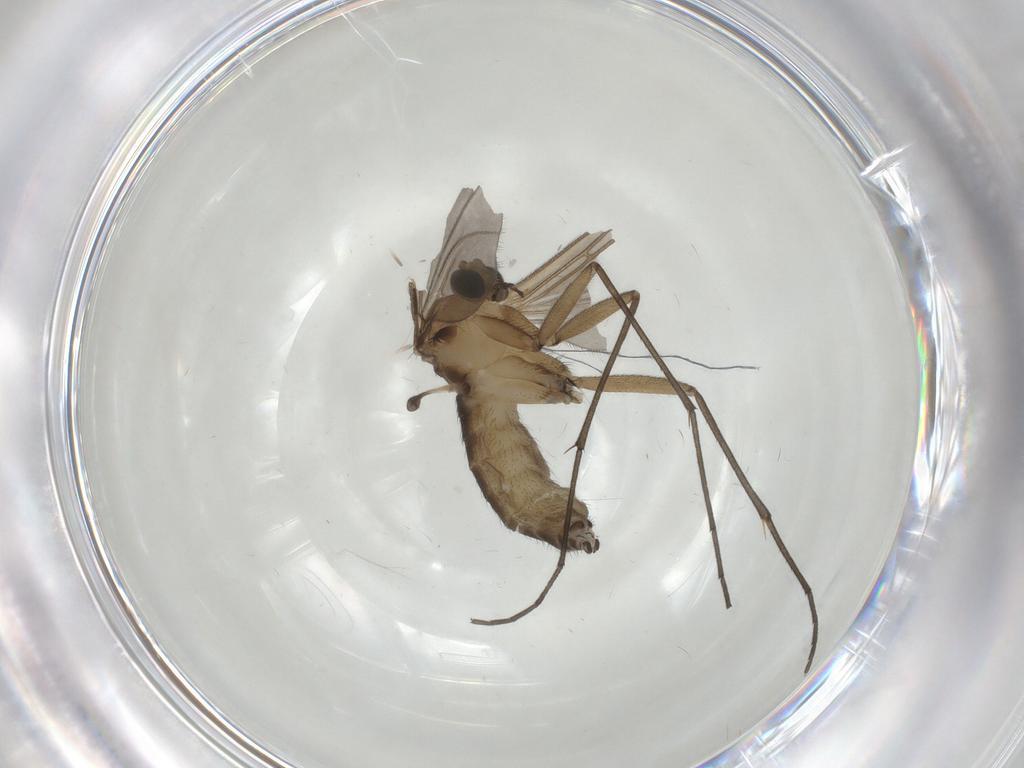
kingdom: Animalia
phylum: Arthropoda
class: Insecta
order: Diptera
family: Sciaridae
